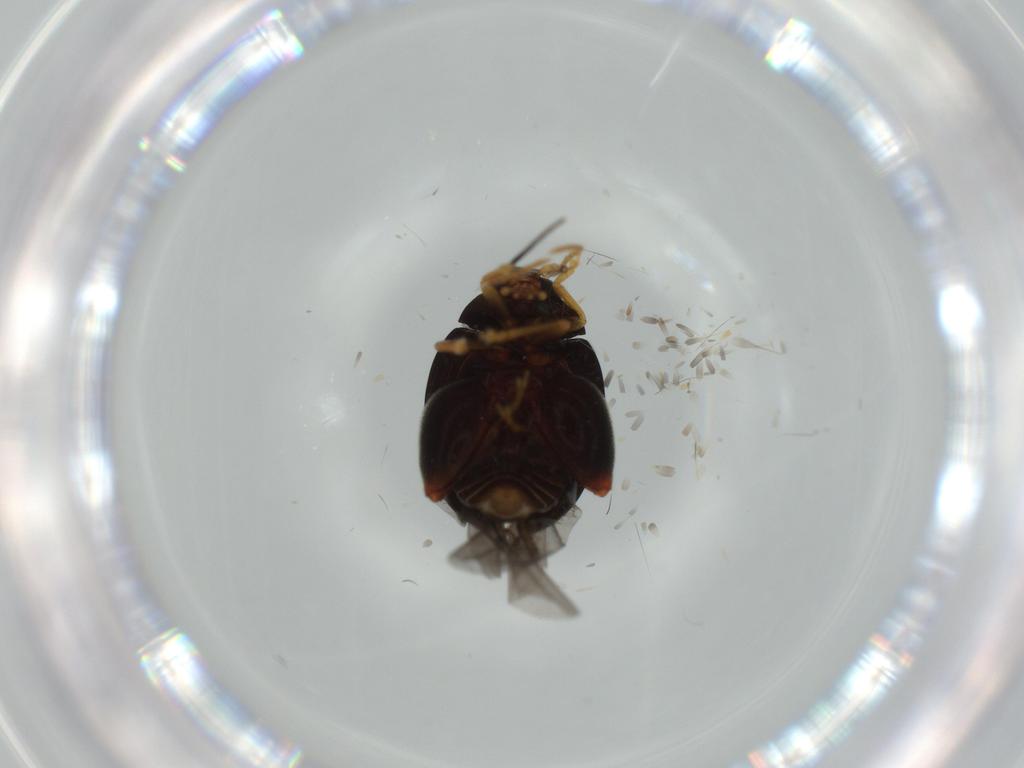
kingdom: Animalia
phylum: Arthropoda
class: Insecta
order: Coleoptera
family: Chrysomelidae
